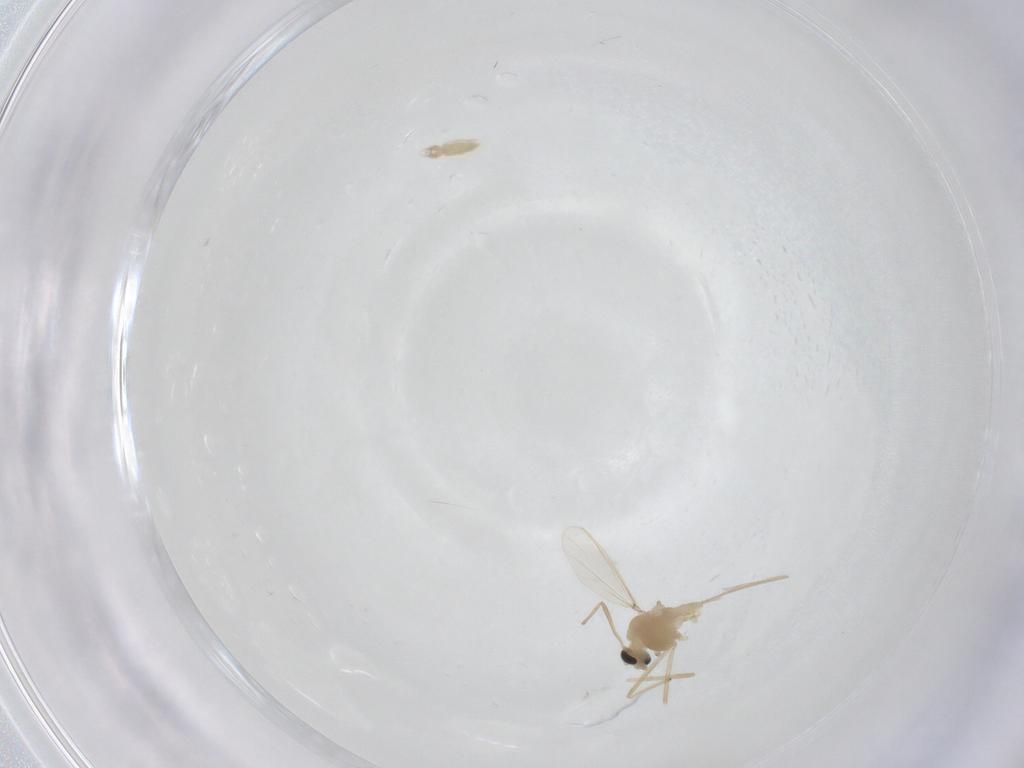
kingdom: Animalia
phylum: Arthropoda
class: Insecta
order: Diptera
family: Chironomidae
